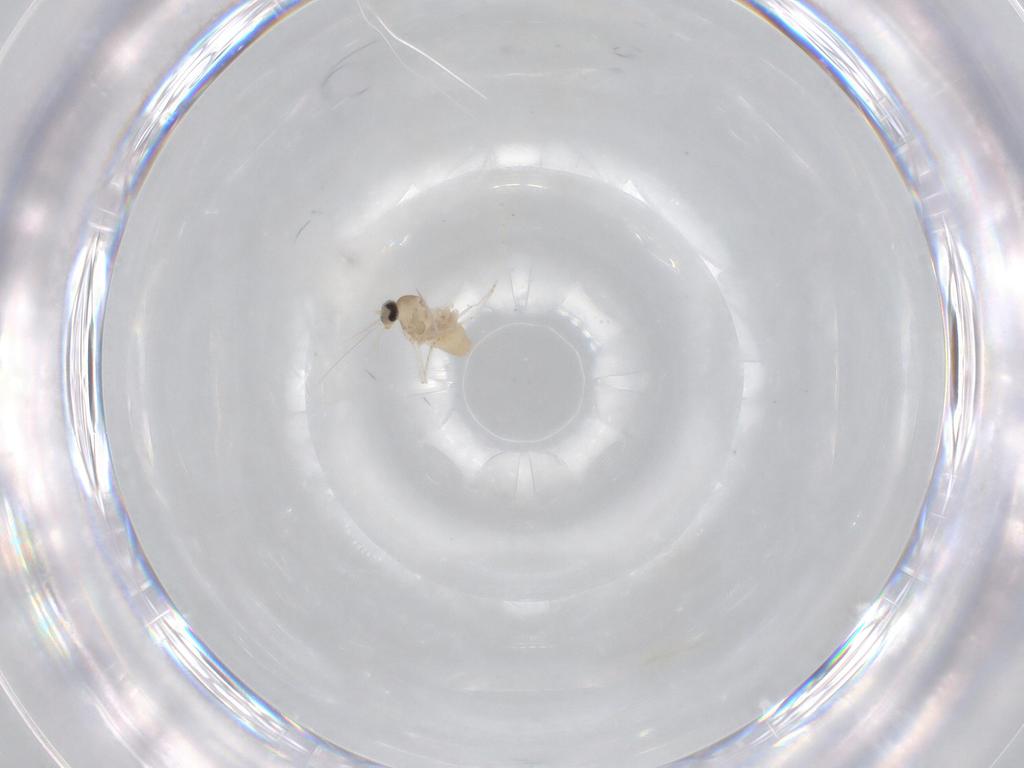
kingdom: Animalia
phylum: Arthropoda
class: Insecta
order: Diptera
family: Cecidomyiidae
